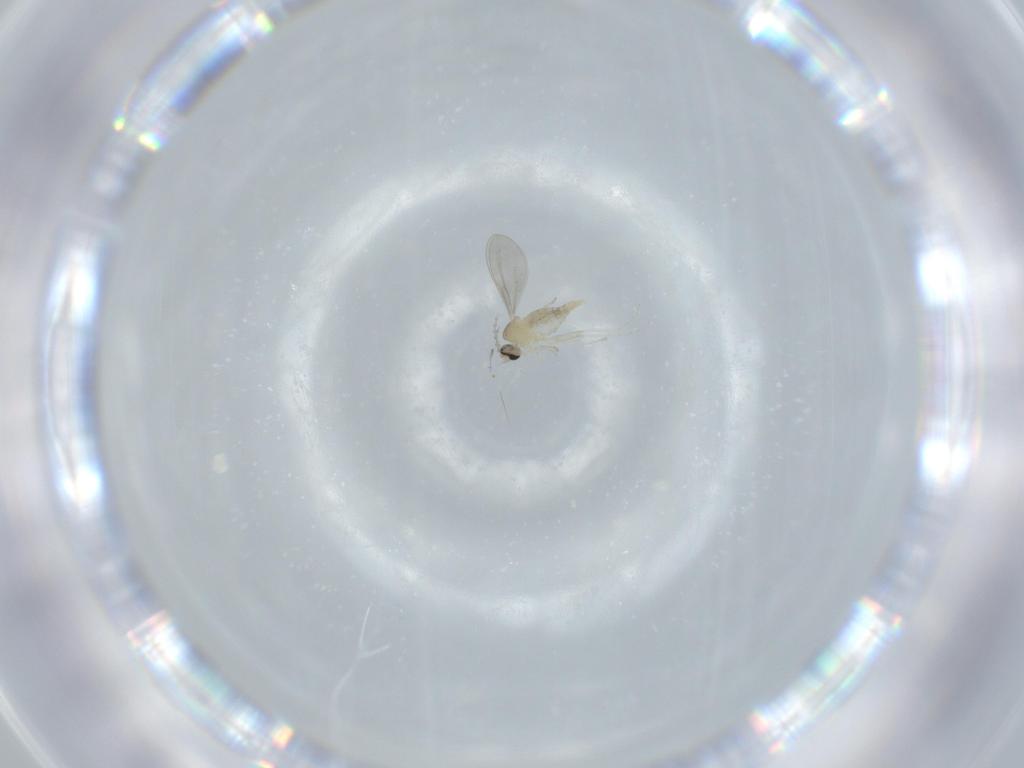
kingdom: Animalia
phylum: Arthropoda
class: Insecta
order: Diptera
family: Cecidomyiidae
